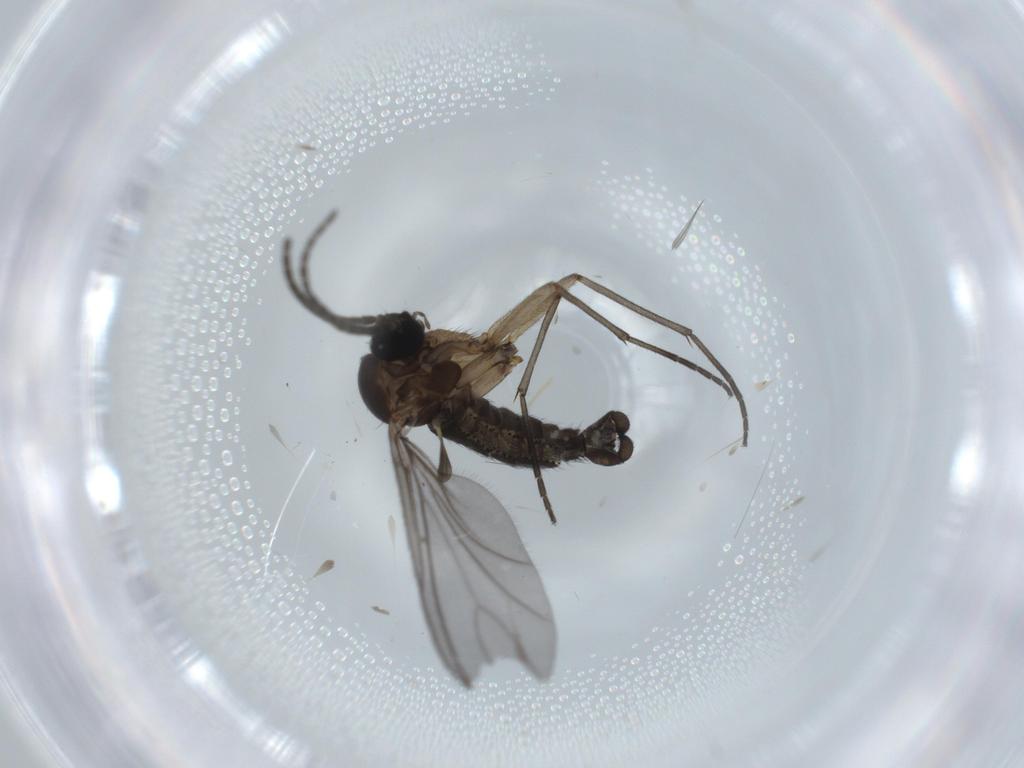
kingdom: Animalia
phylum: Arthropoda
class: Insecta
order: Diptera
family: Sciaridae
